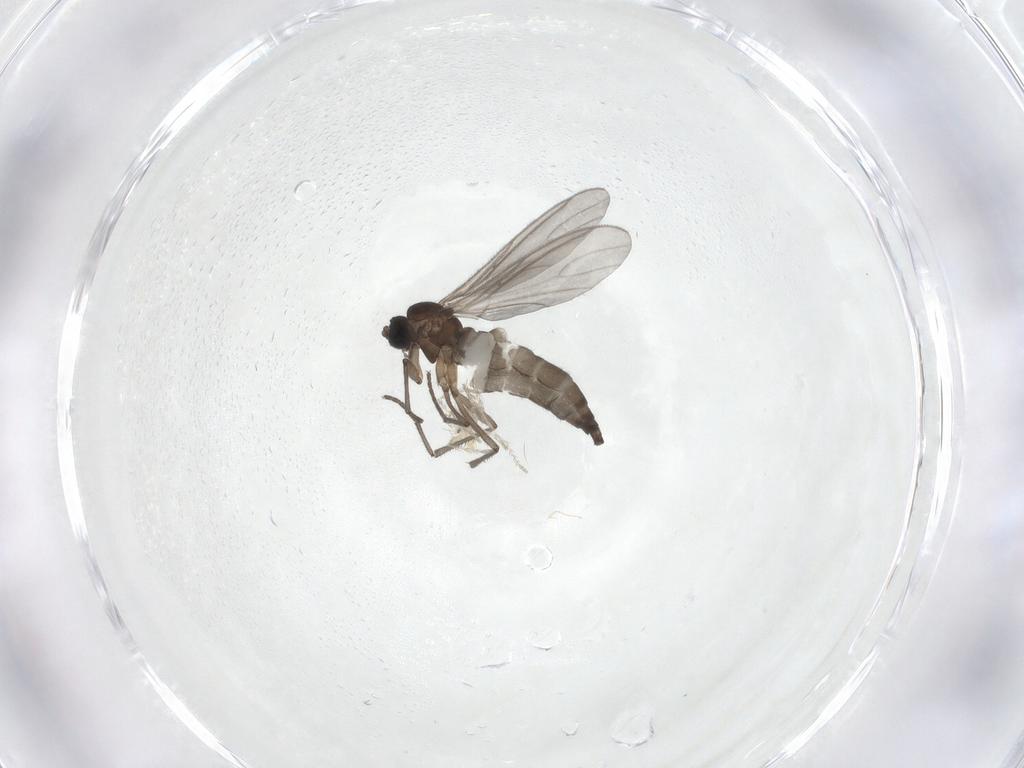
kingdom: Animalia
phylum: Arthropoda
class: Insecta
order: Diptera
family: Sciaridae
